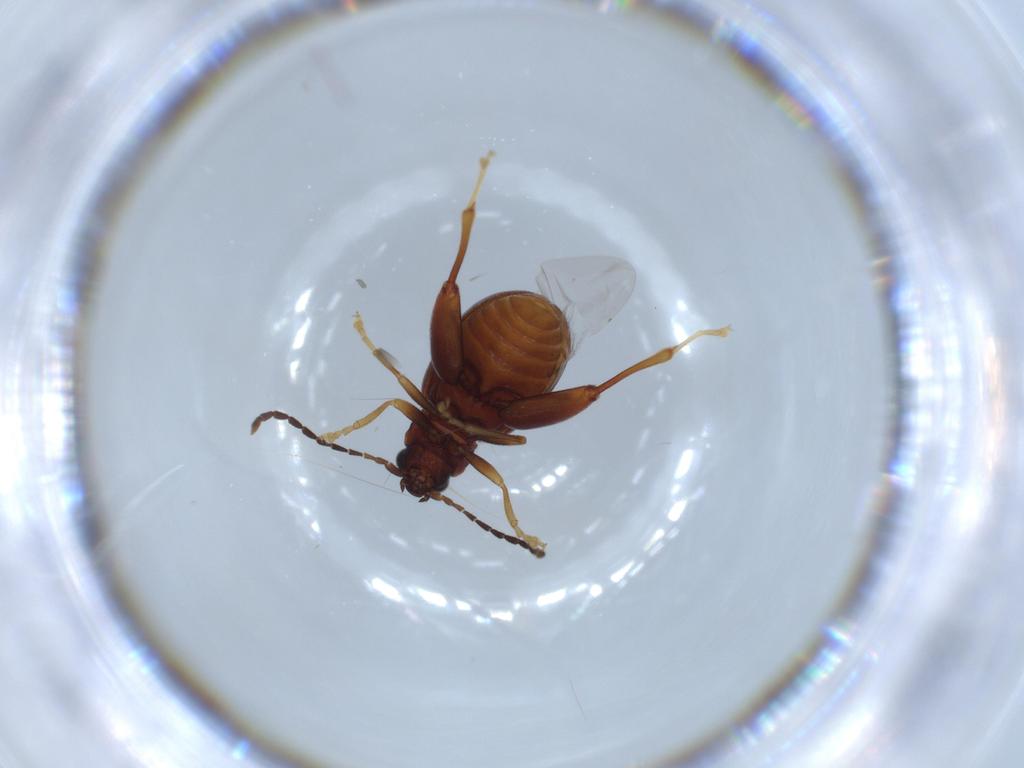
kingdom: Animalia
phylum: Arthropoda
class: Insecta
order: Coleoptera
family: Chrysomelidae
